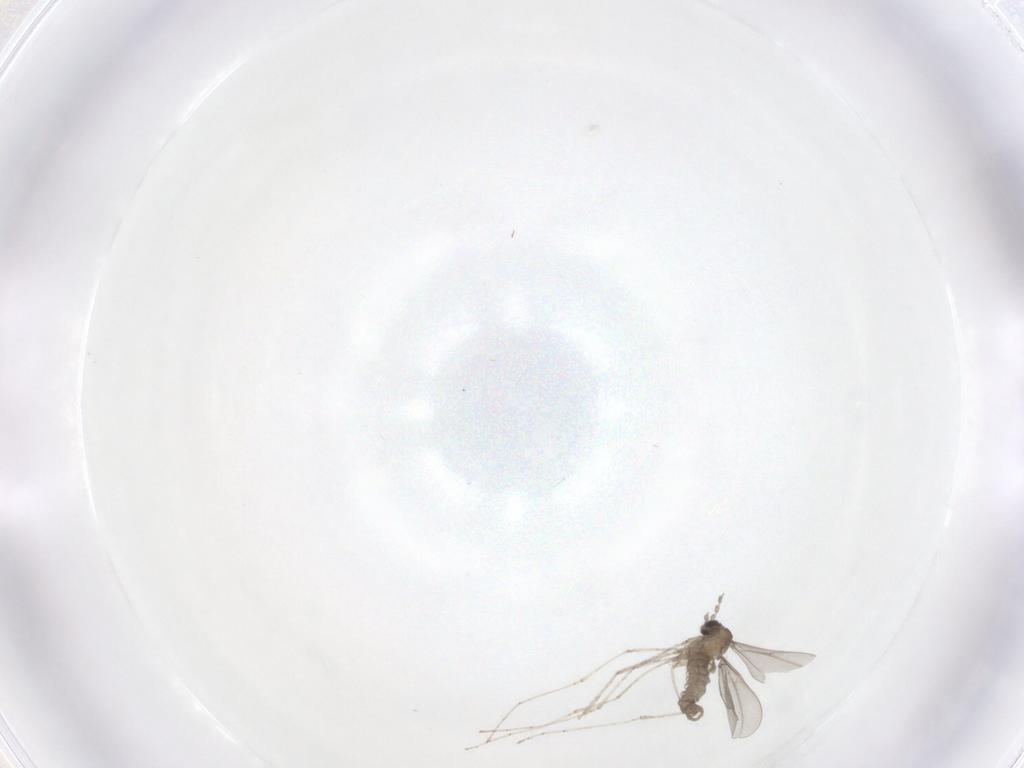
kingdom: Animalia
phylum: Arthropoda
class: Insecta
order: Diptera
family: Cecidomyiidae
